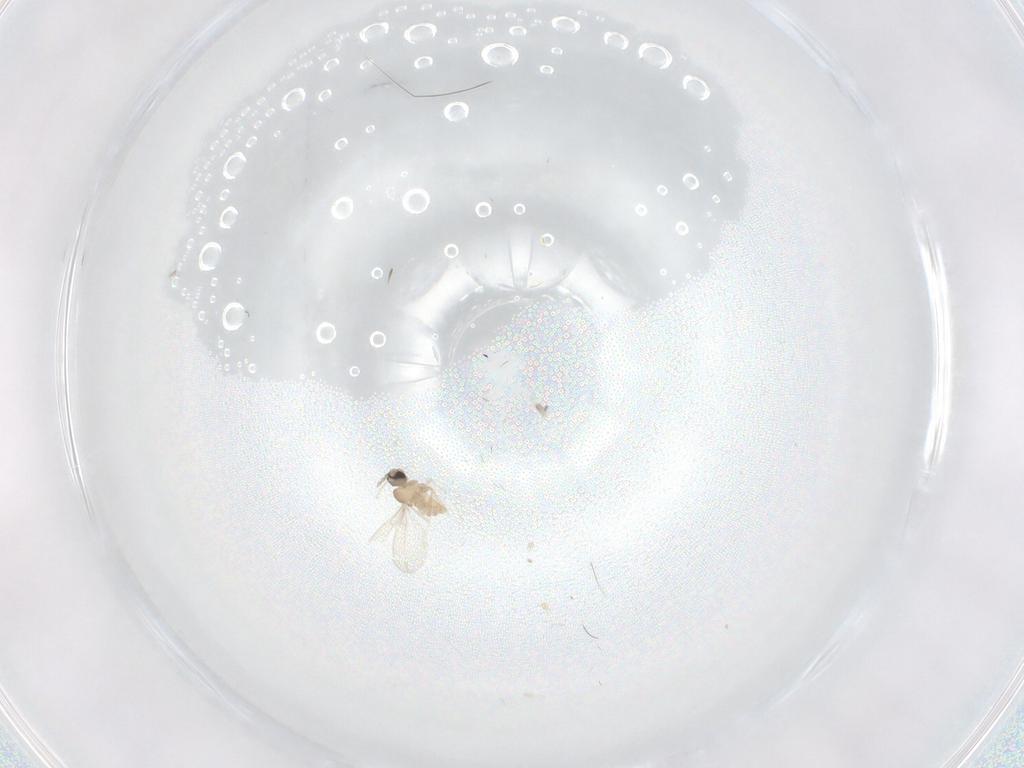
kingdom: Animalia
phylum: Arthropoda
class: Insecta
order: Diptera
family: Cecidomyiidae
